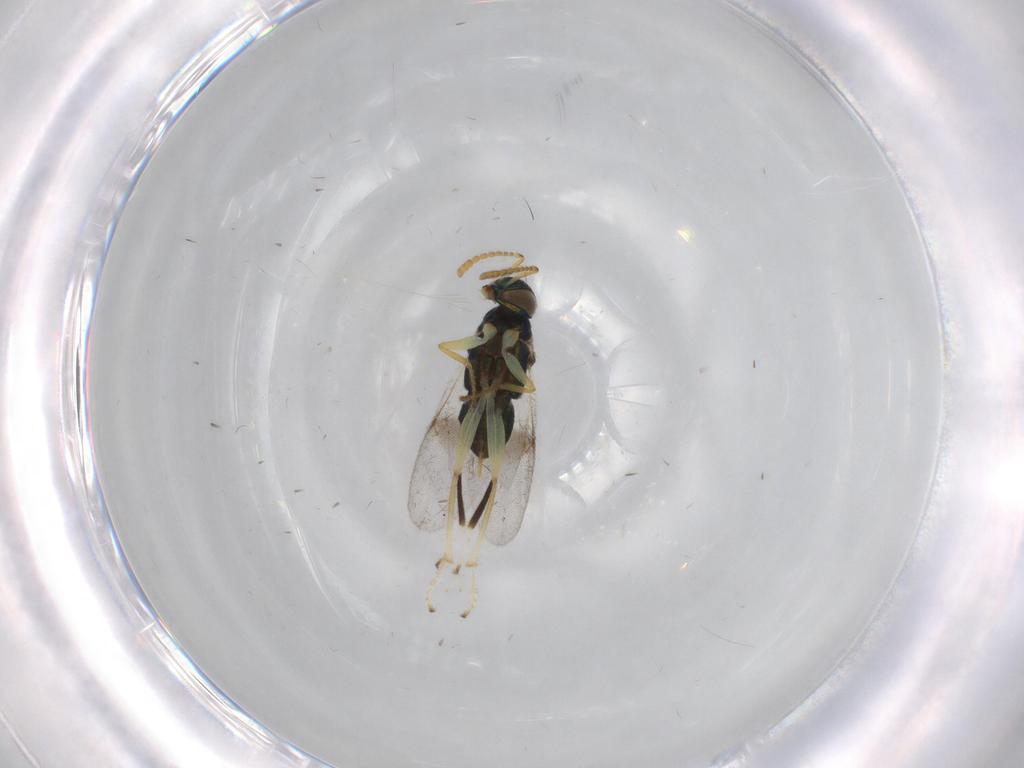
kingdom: Animalia
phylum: Arthropoda
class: Insecta
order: Hymenoptera
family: Encyrtidae
